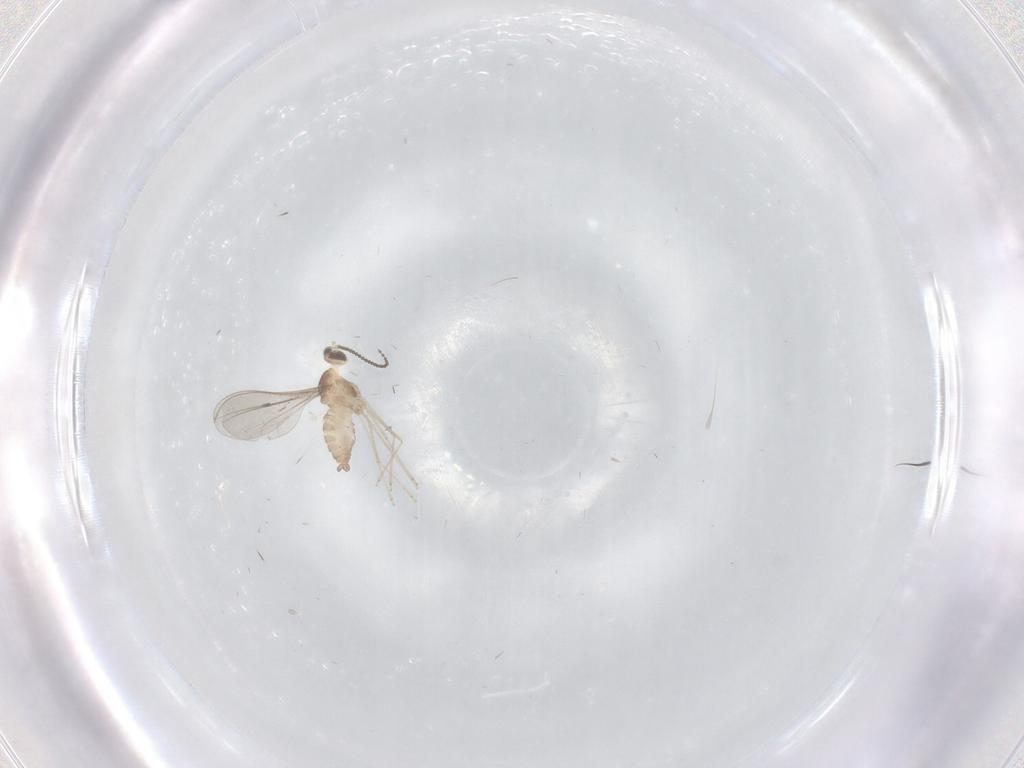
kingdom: Animalia
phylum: Arthropoda
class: Insecta
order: Diptera
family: Cecidomyiidae
